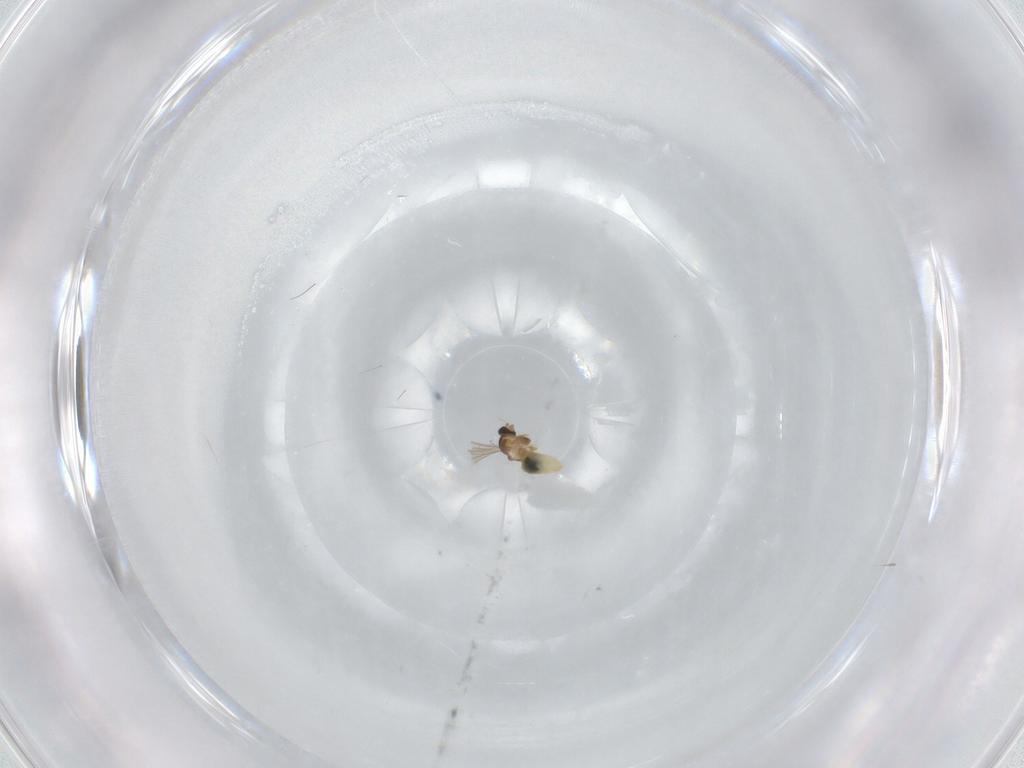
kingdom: Animalia
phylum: Arthropoda
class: Insecta
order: Diptera
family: Cecidomyiidae
